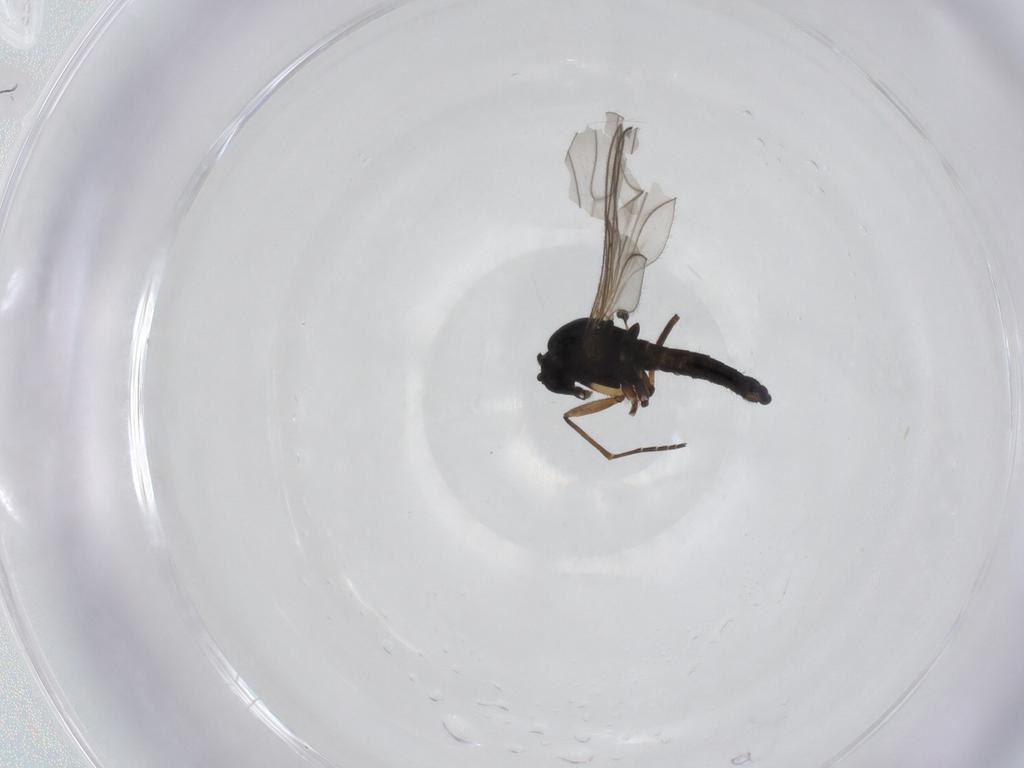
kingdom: Animalia
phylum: Arthropoda
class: Insecta
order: Diptera
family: Sciaridae
